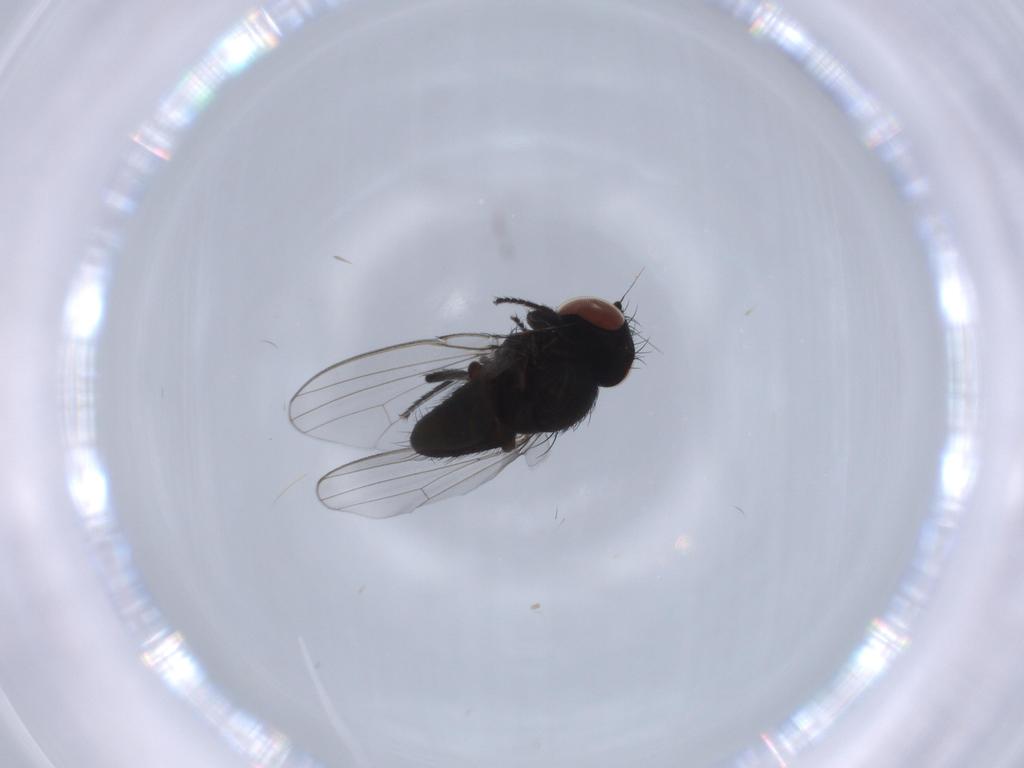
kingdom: Animalia
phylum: Arthropoda
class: Insecta
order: Diptera
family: Milichiidae
